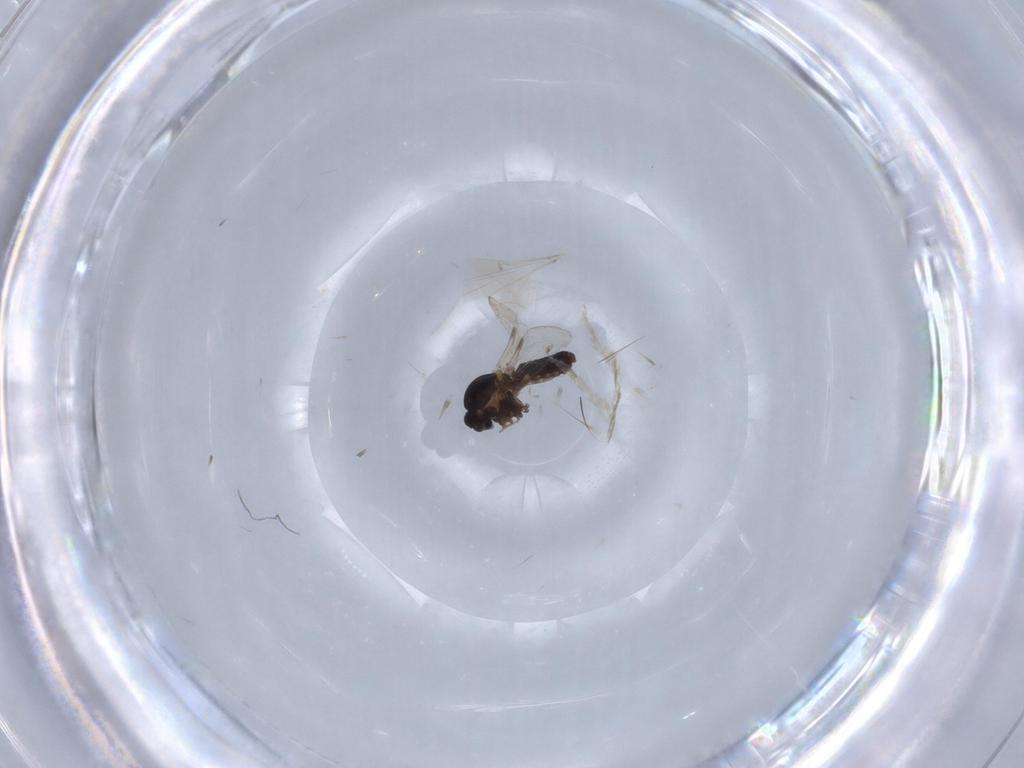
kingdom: Animalia
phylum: Arthropoda
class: Insecta
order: Diptera
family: Ceratopogonidae
